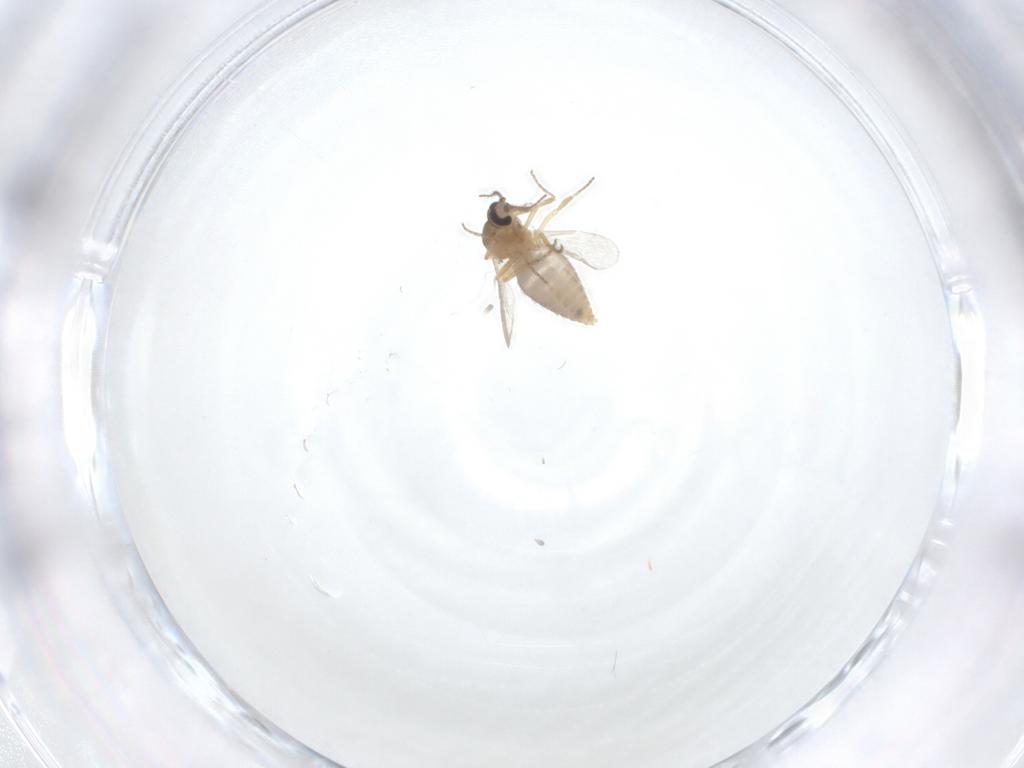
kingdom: Animalia
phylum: Arthropoda
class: Insecta
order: Diptera
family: Ceratopogonidae
